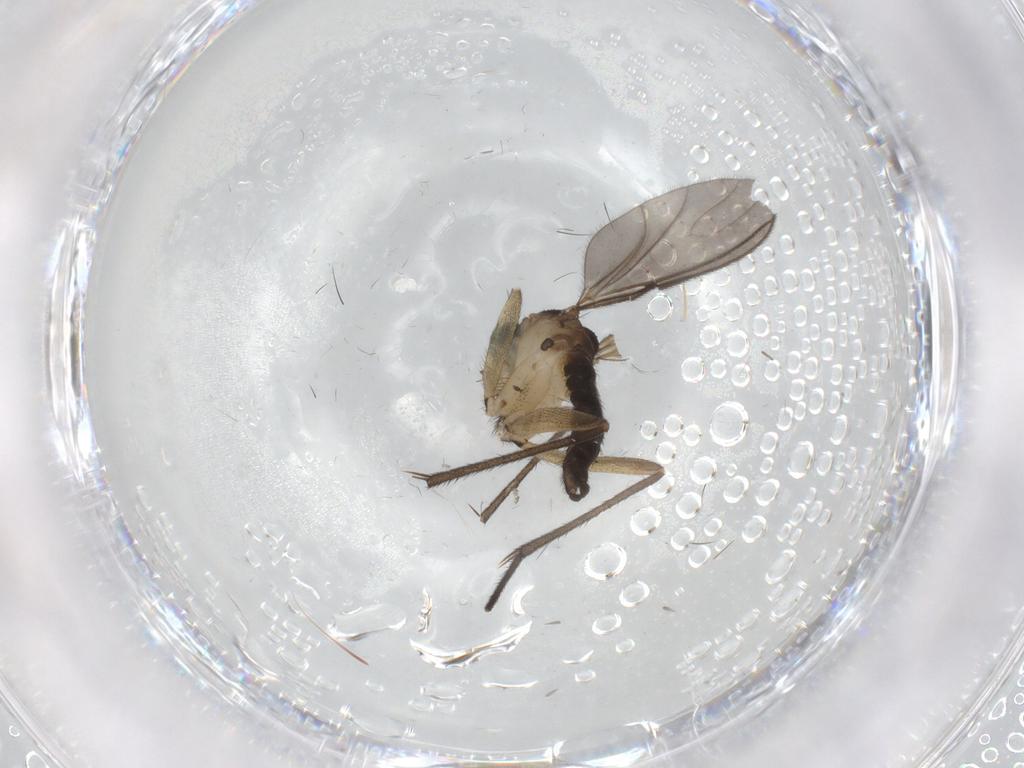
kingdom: Animalia
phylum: Arthropoda
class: Insecta
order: Diptera
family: Sciaridae
